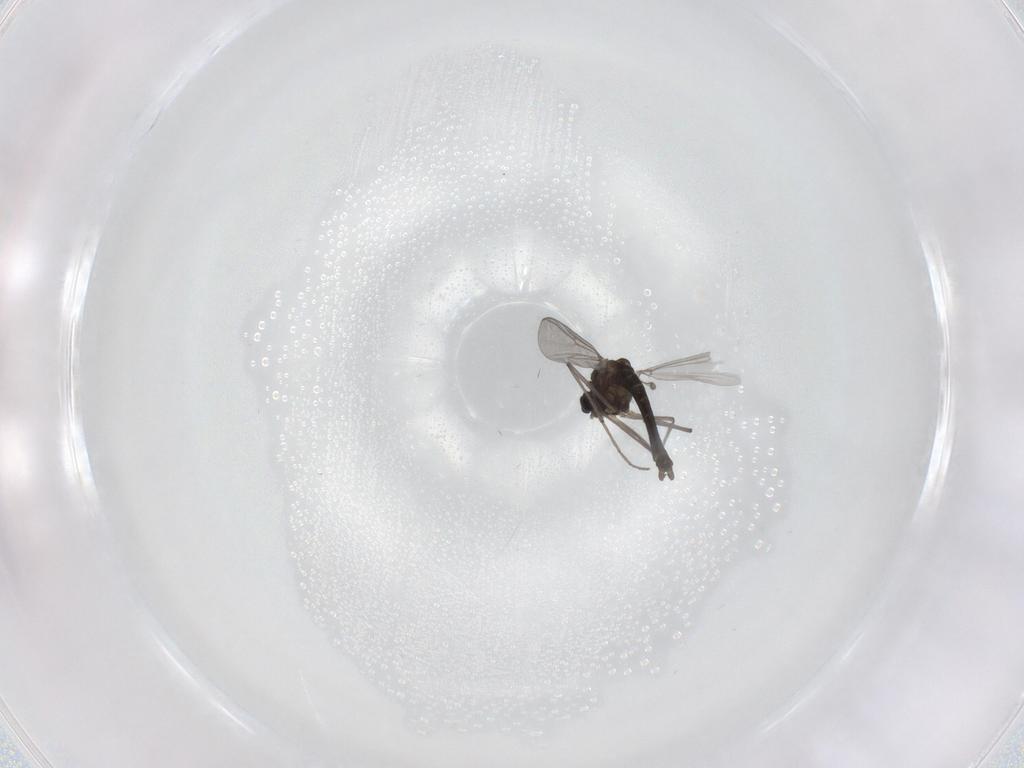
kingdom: Animalia
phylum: Arthropoda
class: Insecta
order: Diptera
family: Chironomidae
